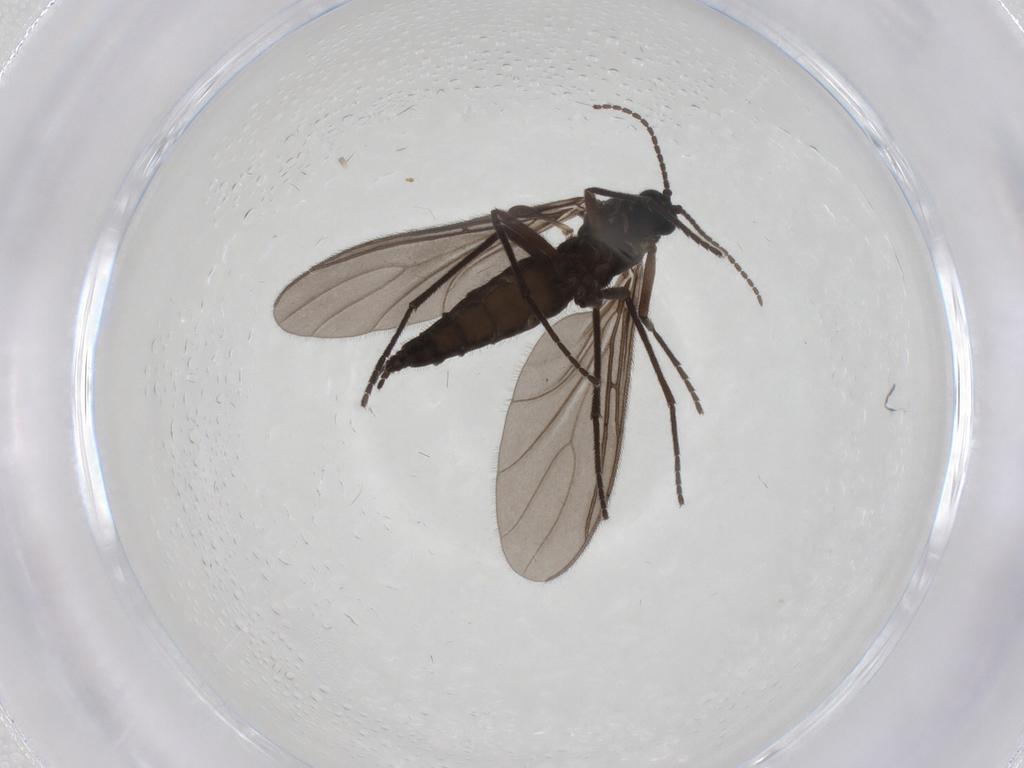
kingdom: Animalia
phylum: Arthropoda
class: Insecta
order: Diptera
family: Sciaridae
